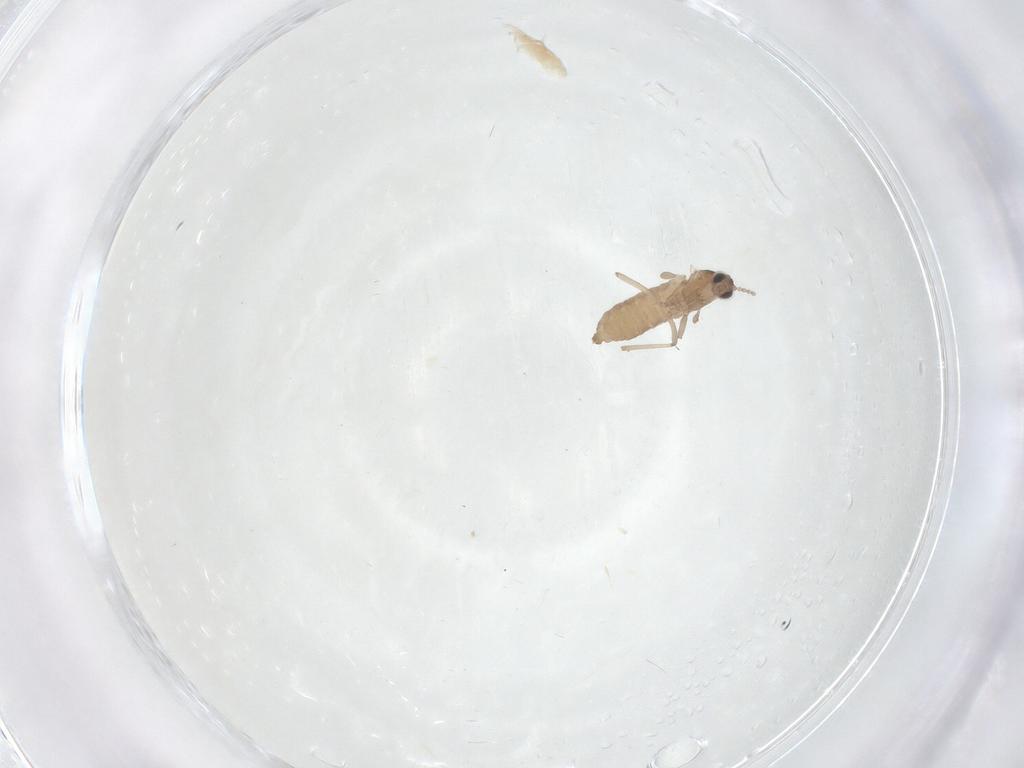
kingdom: Animalia
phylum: Arthropoda
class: Insecta
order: Diptera
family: Cecidomyiidae
